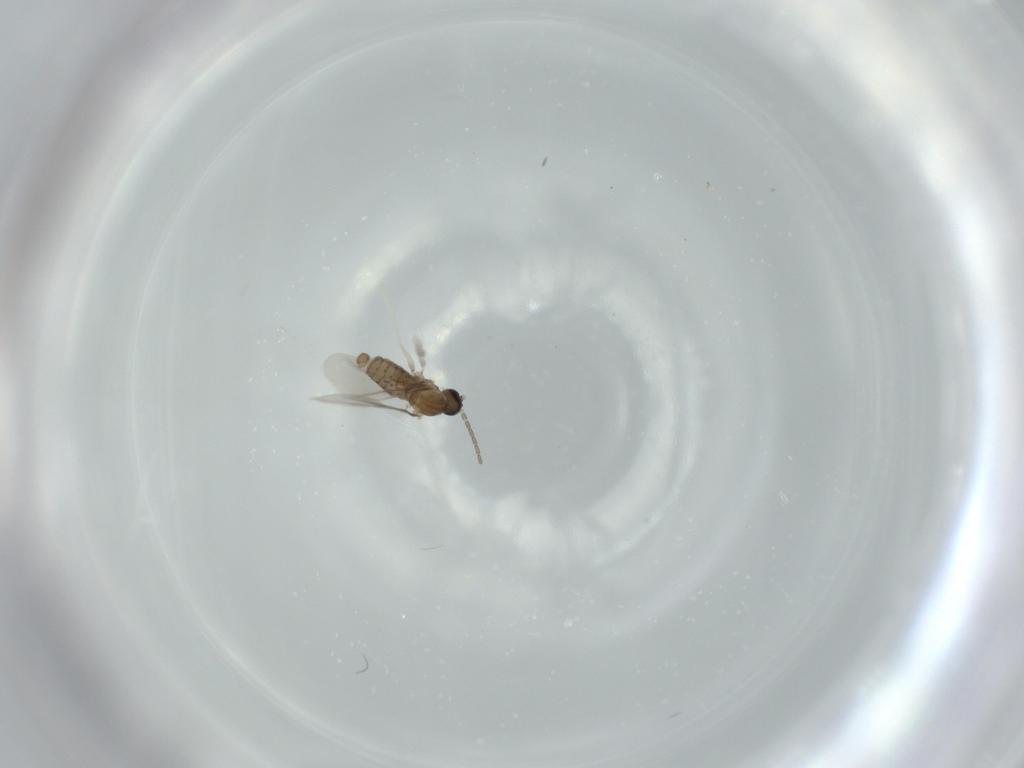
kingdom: Animalia
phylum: Arthropoda
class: Insecta
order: Diptera
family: Cecidomyiidae
